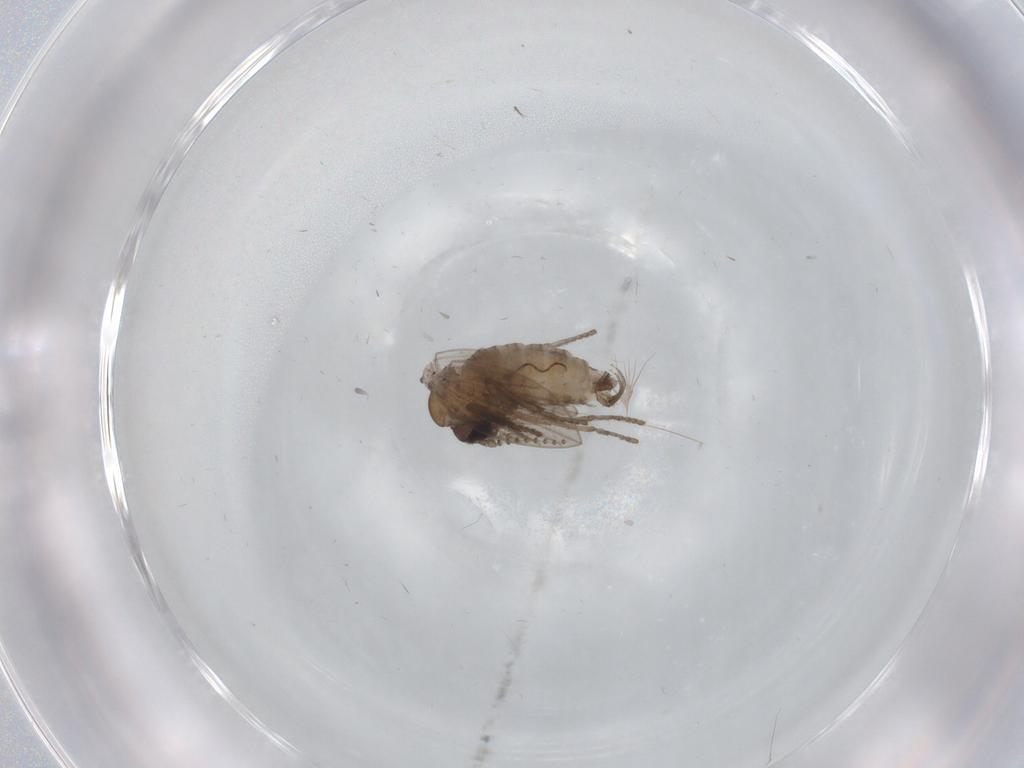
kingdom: Animalia
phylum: Arthropoda
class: Insecta
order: Diptera
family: Psychodidae
